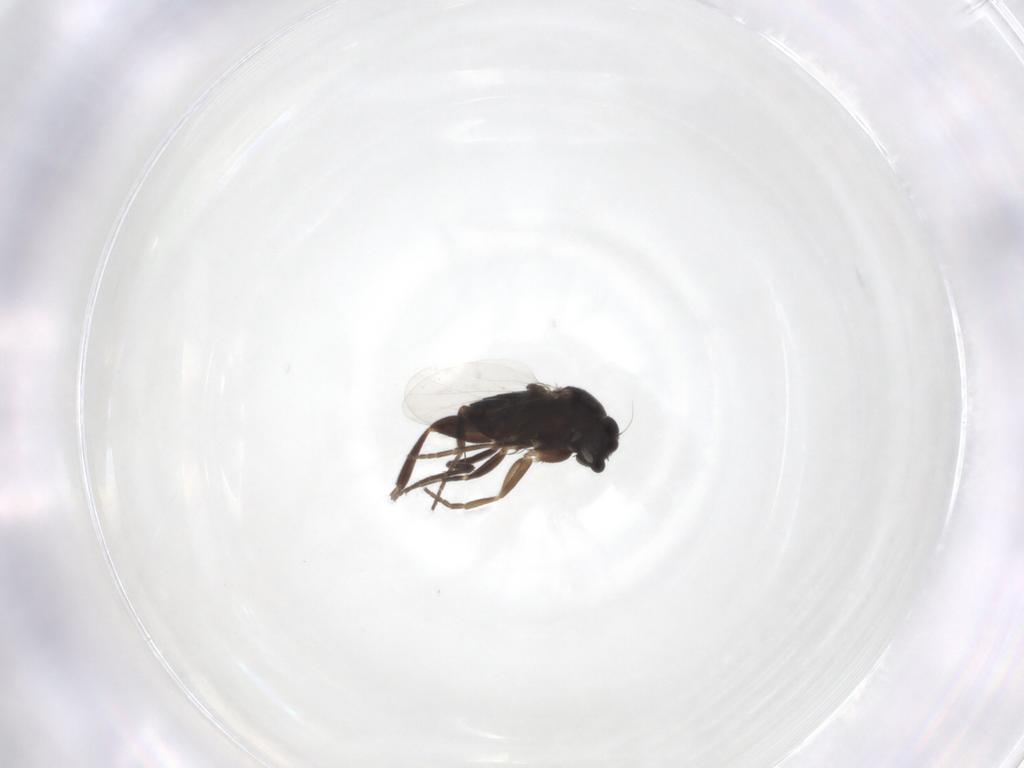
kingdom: Animalia
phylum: Arthropoda
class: Insecta
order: Diptera
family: Phoridae
